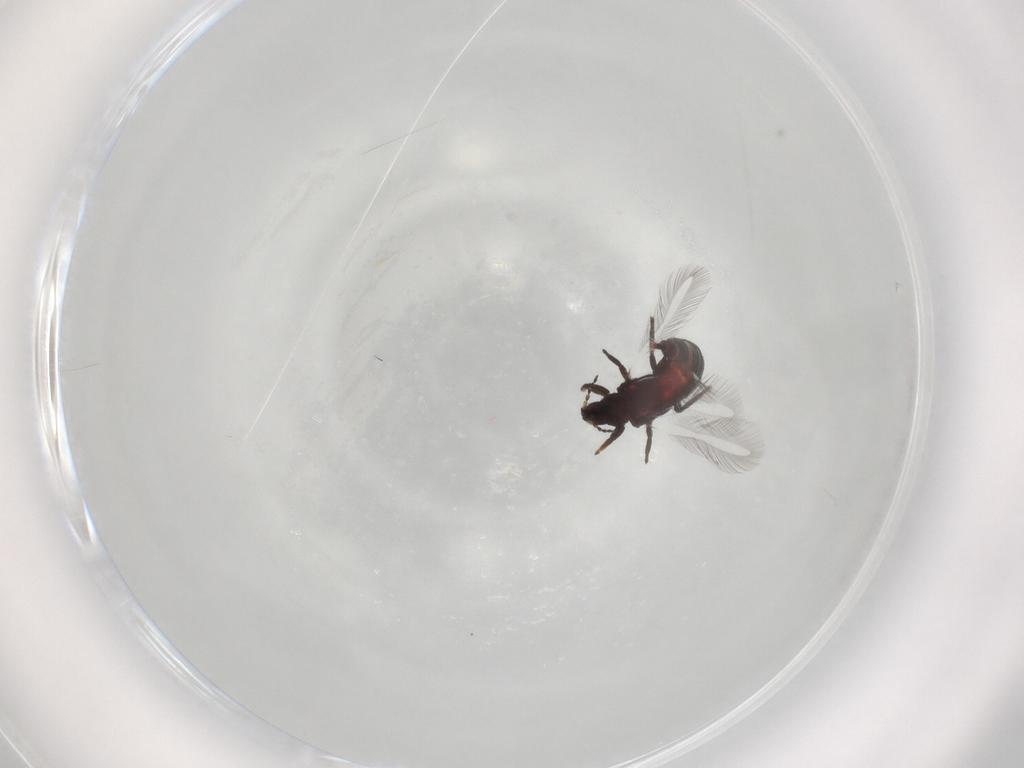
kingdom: Animalia
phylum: Arthropoda
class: Insecta
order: Thysanoptera
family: Phlaeothripidae
